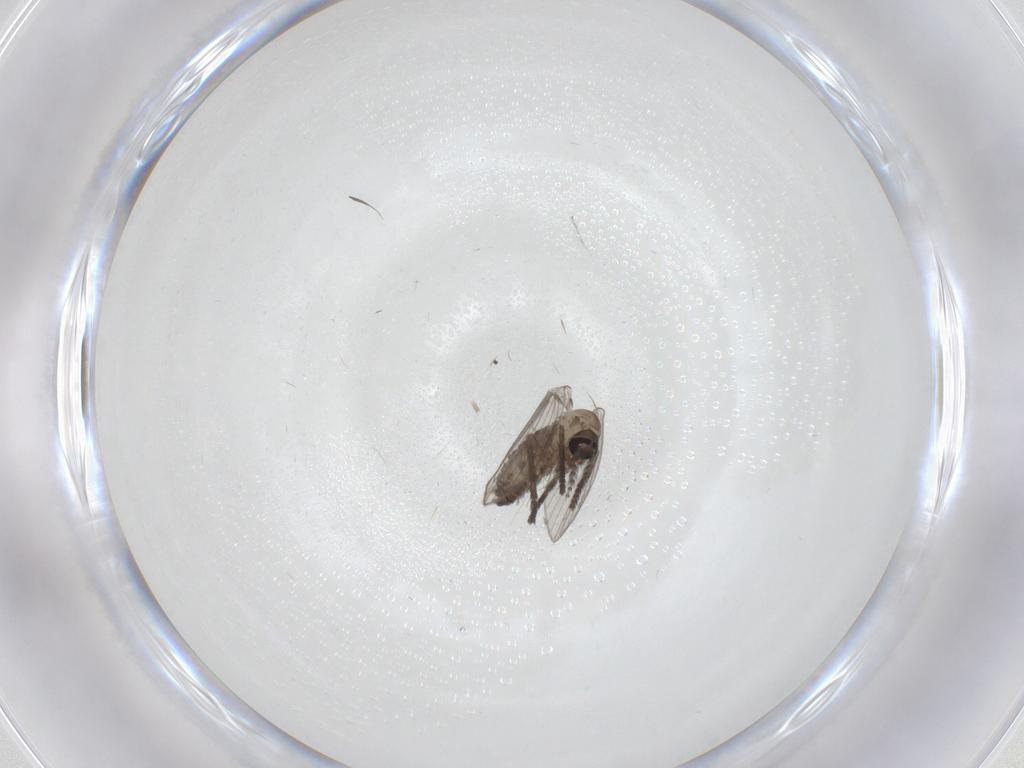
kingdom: Animalia
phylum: Arthropoda
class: Insecta
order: Diptera
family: Psychodidae
